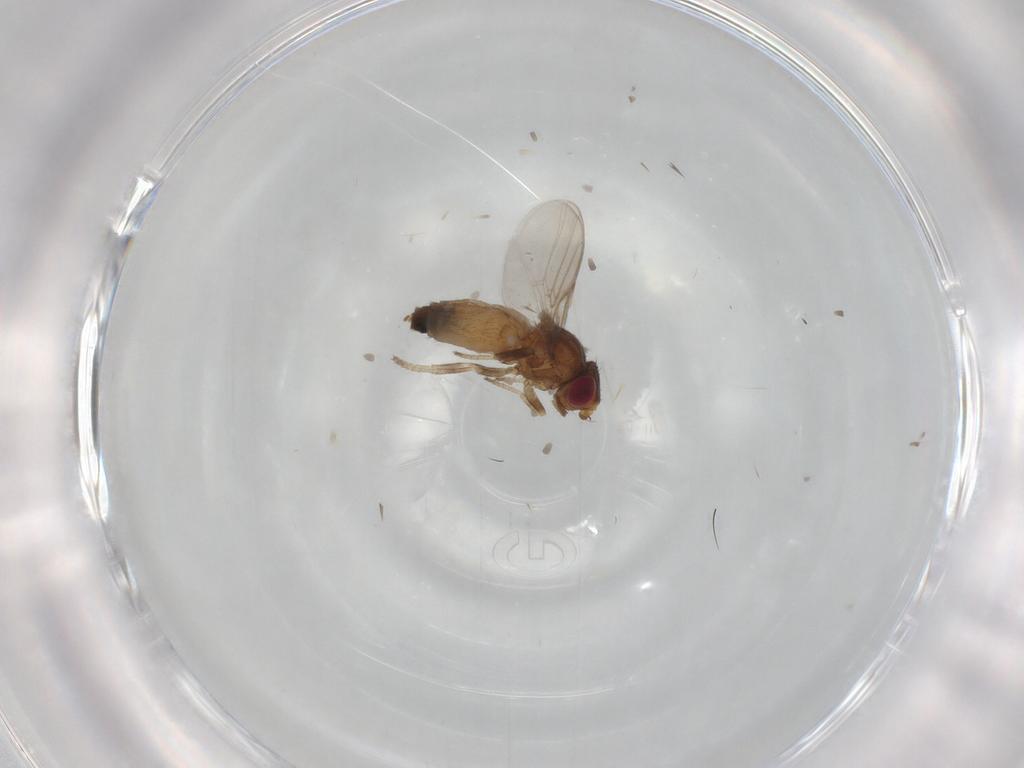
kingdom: Animalia
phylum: Arthropoda
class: Insecta
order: Diptera
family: Chloropidae
